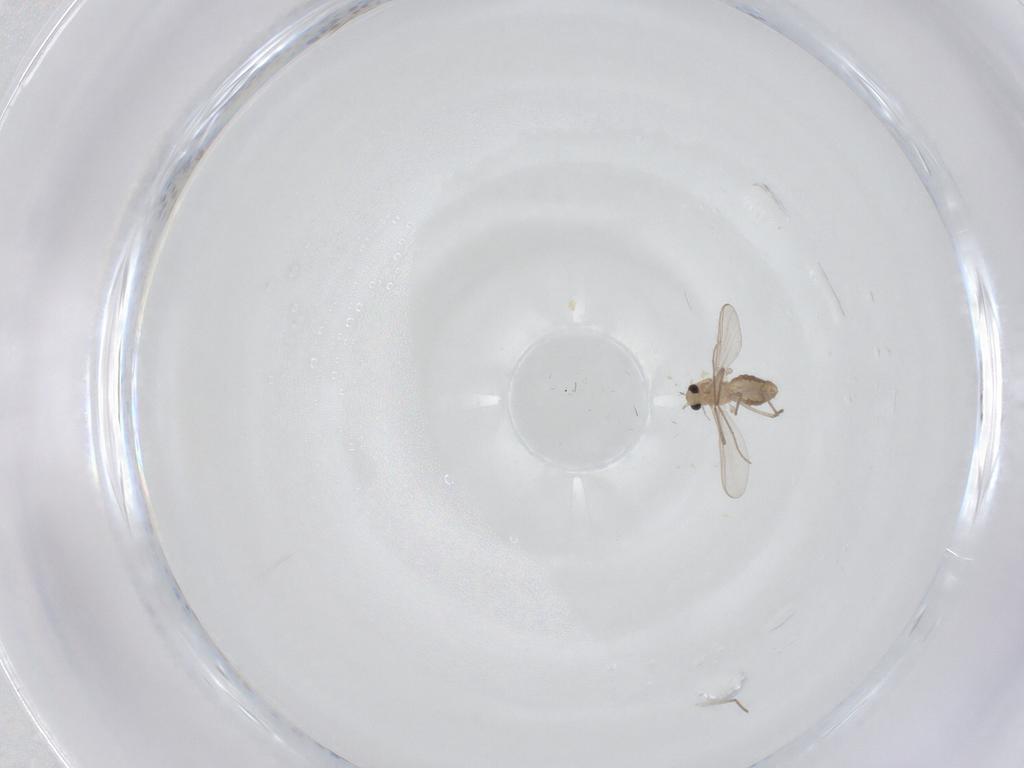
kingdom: Animalia
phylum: Arthropoda
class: Insecta
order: Diptera
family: Chironomidae
